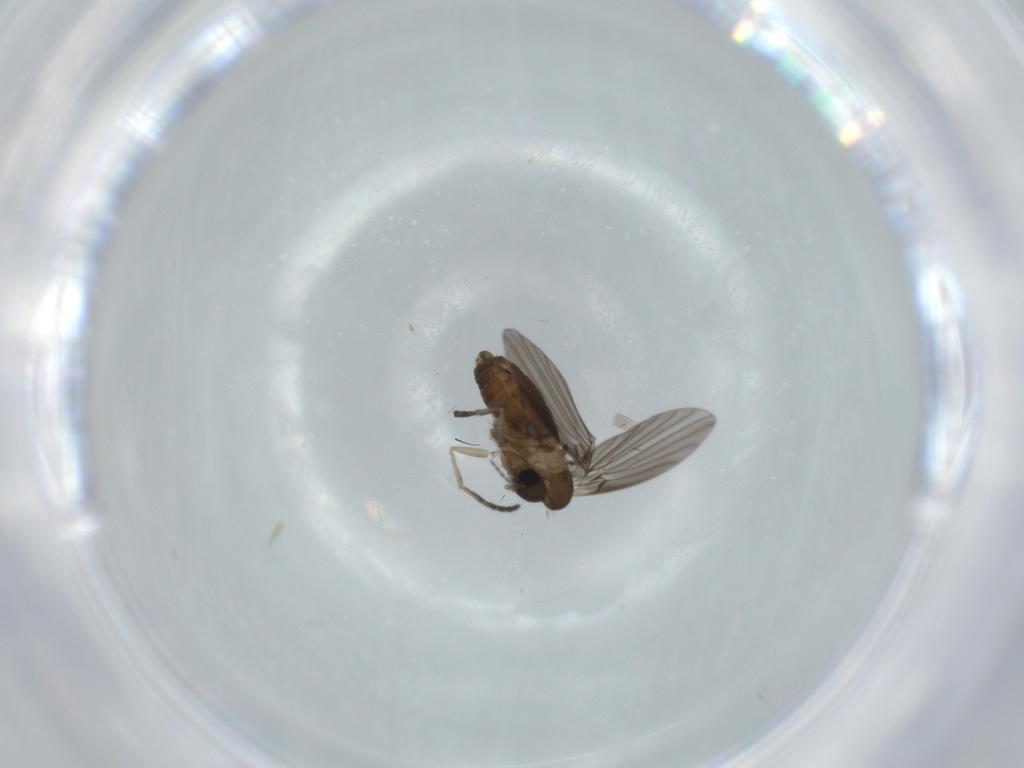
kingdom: Animalia
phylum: Arthropoda
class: Insecta
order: Diptera
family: Psychodidae
